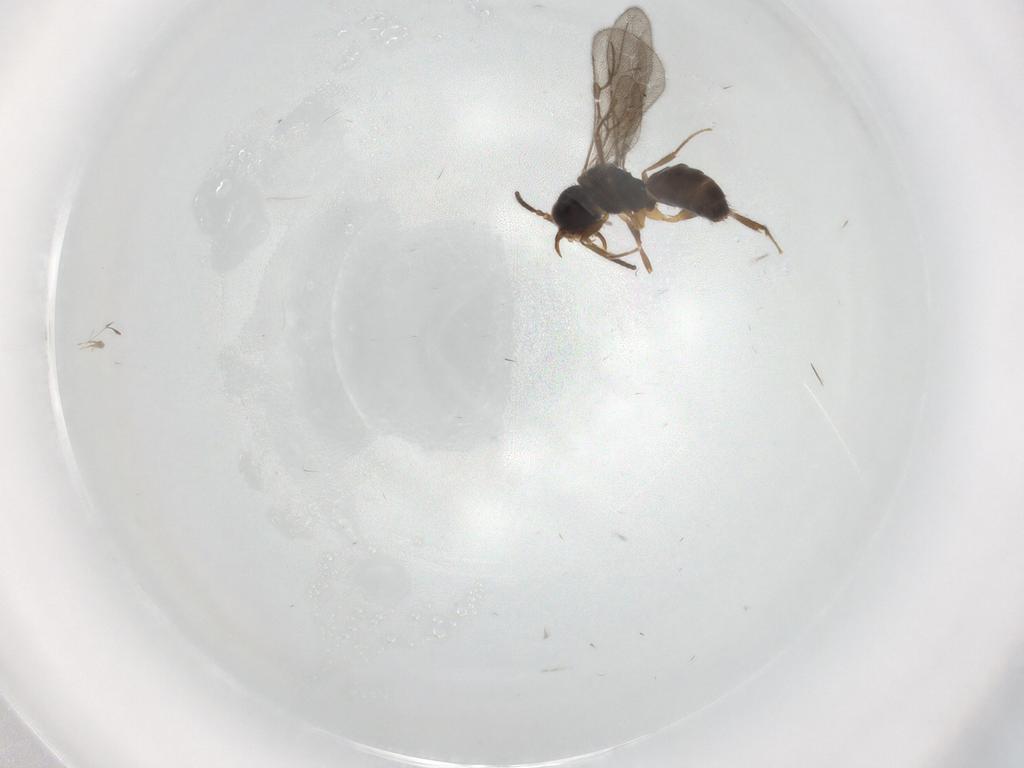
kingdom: Animalia
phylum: Arthropoda
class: Insecta
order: Hymenoptera
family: Bethylidae
